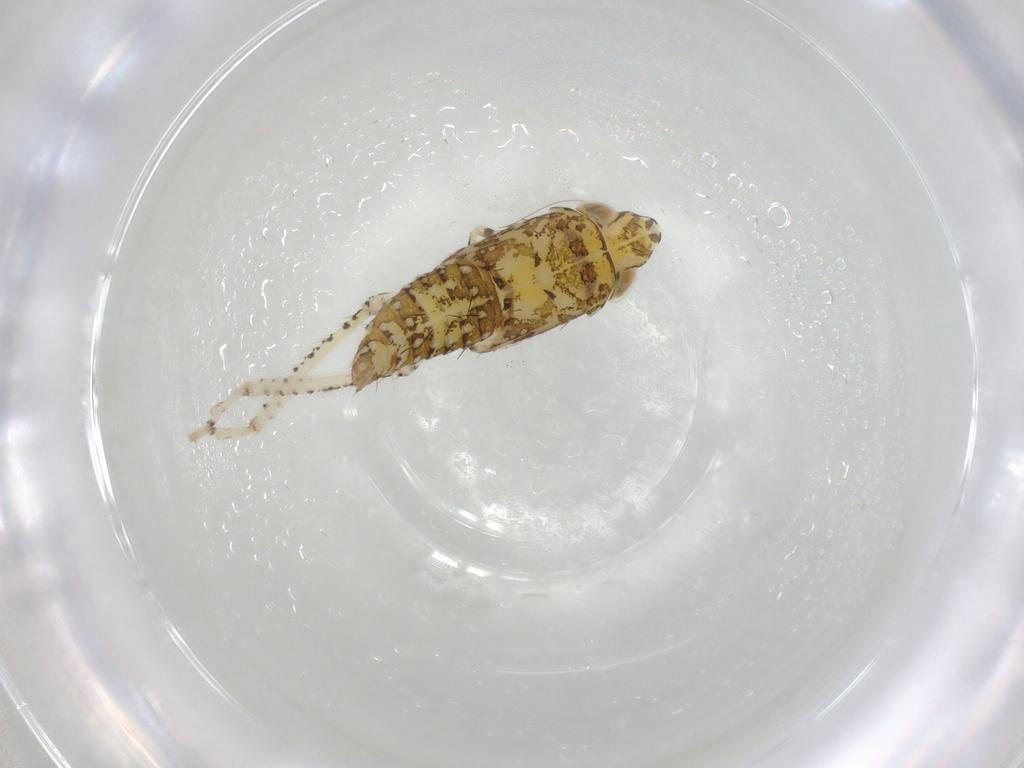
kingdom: Animalia
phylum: Arthropoda
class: Insecta
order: Hemiptera
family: Cicadellidae
